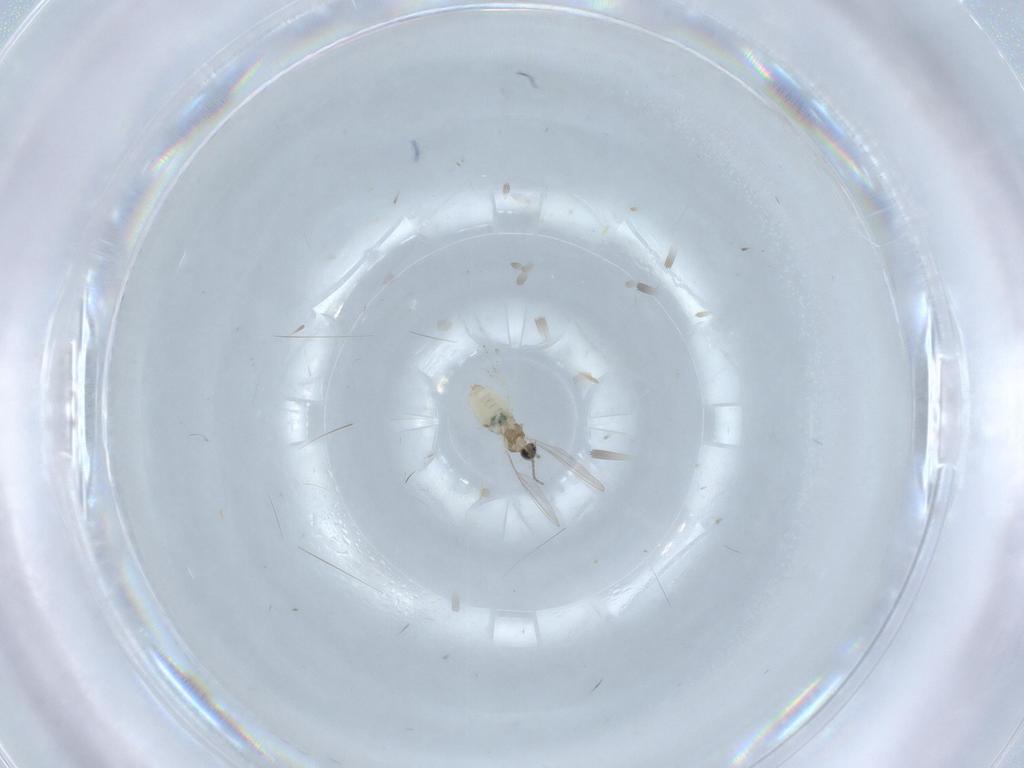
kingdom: Animalia
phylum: Arthropoda
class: Insecta
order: Diptera
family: Cecidomyiidae
